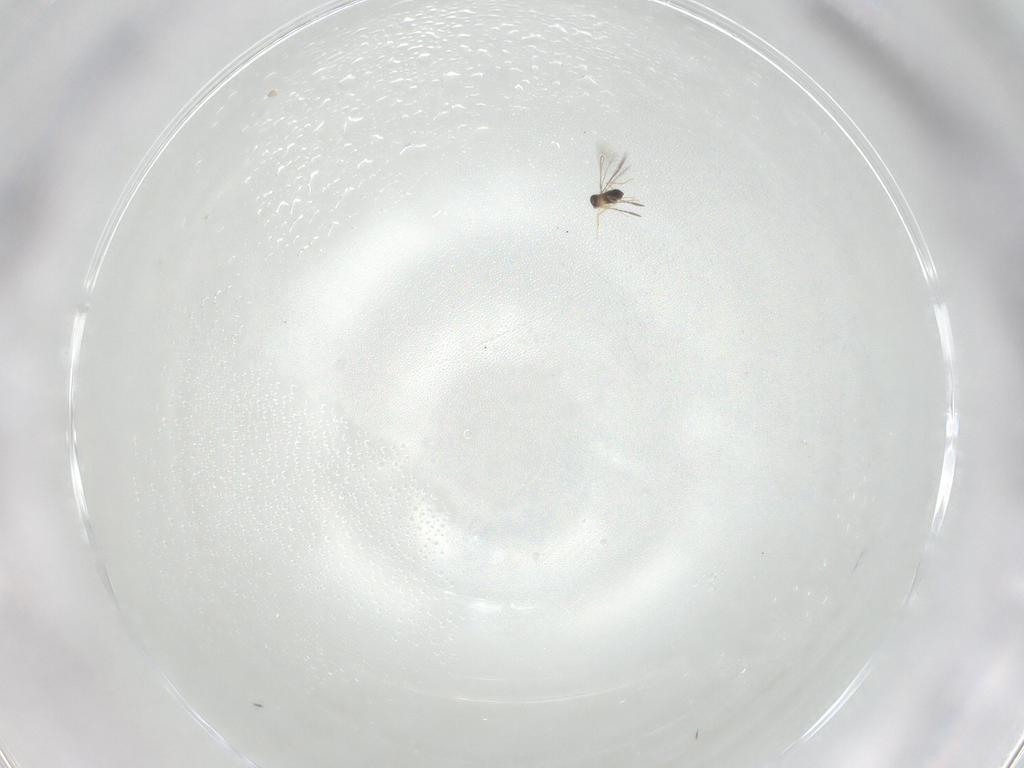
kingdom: Animalia
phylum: Arthropoda
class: Insecta
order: Hymenoptera
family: Mymaridae
